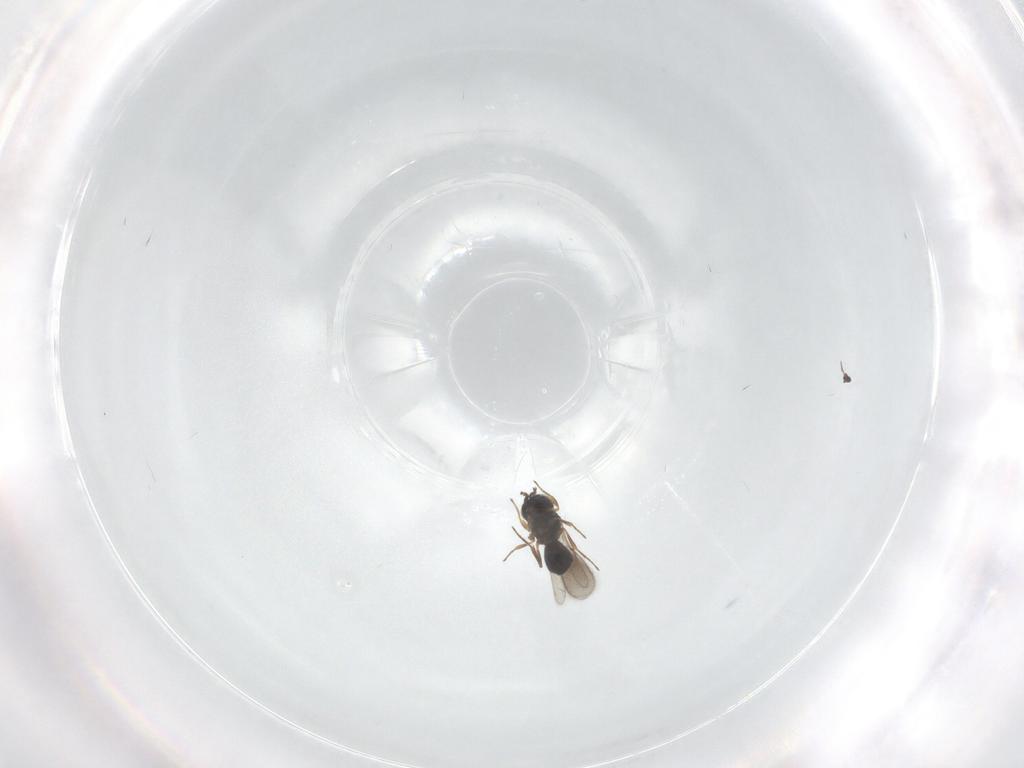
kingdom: Animalia
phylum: Arthropoda
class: Insecta
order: Hymenoptera
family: Scelionidae
